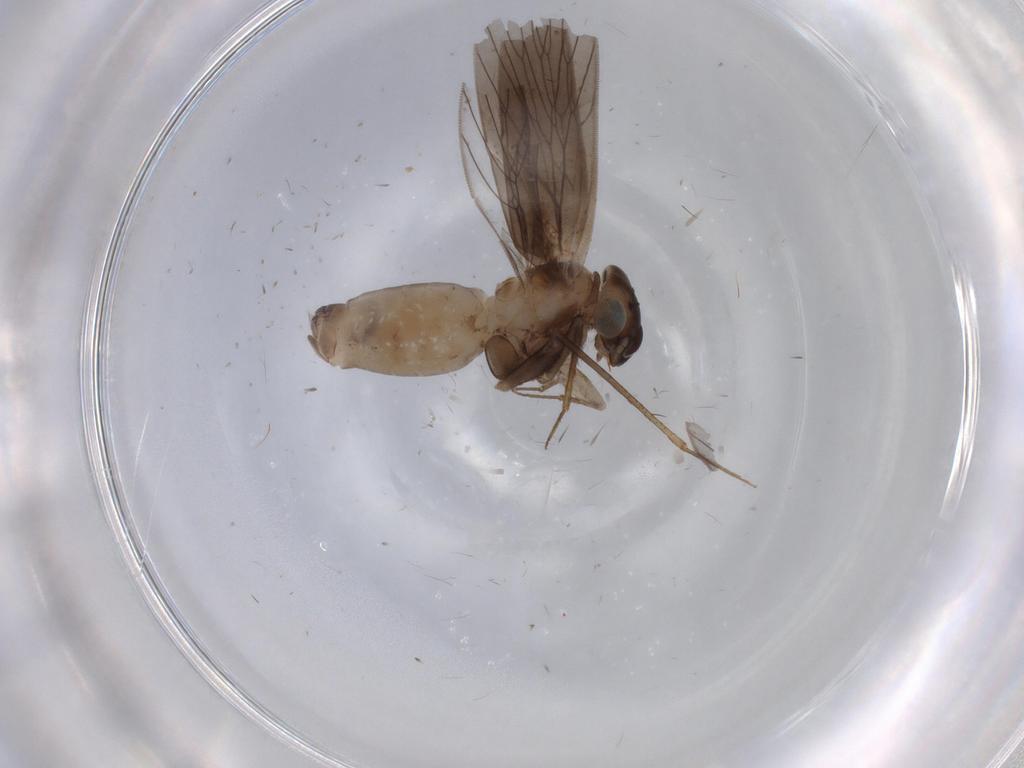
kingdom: Animalia
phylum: Arthropoda
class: Insecta
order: Psocodea
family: Lepidopsocidae
